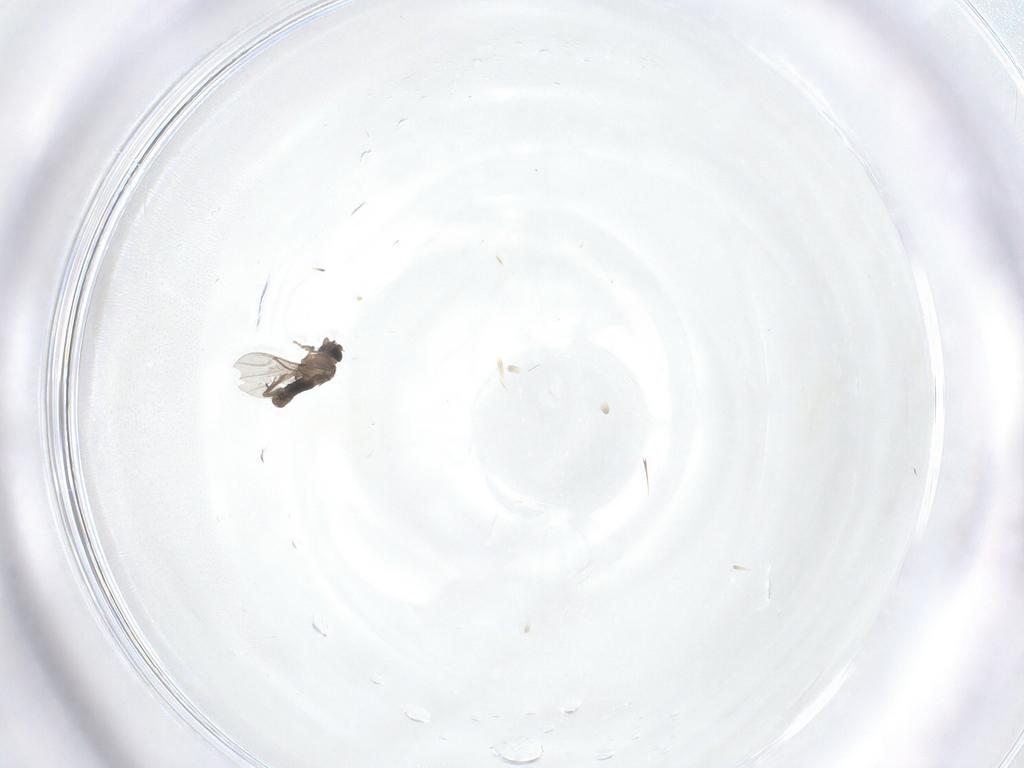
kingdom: Animalia
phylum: Arthropoda
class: Insecta
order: Diptera
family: Phoridae
